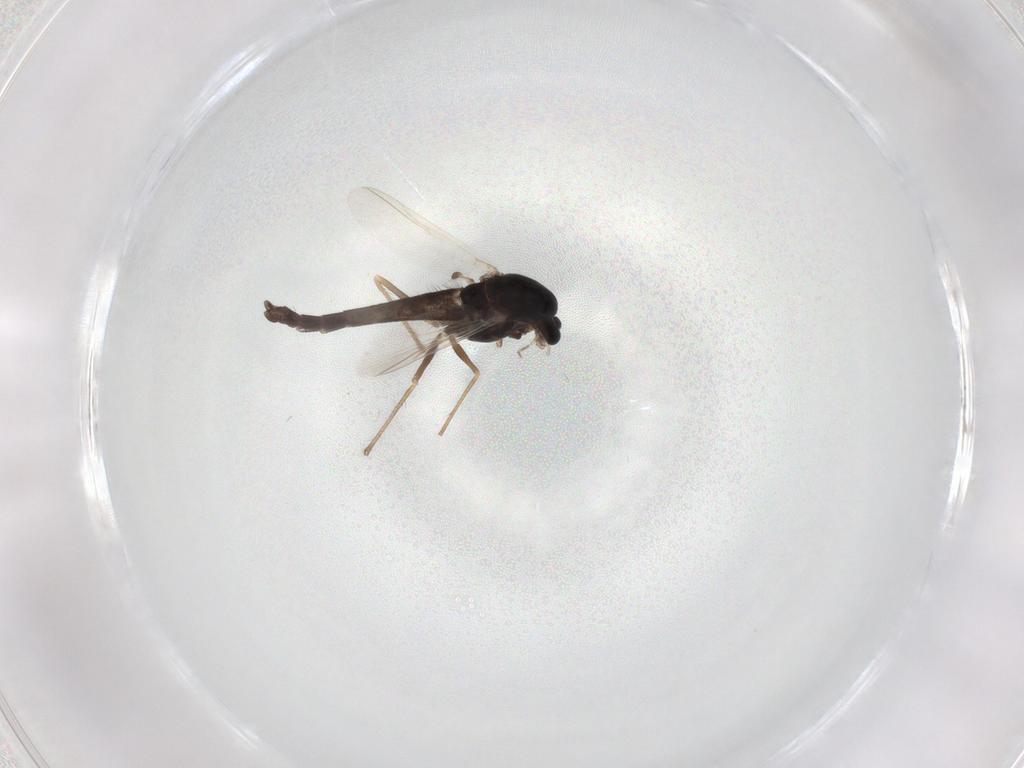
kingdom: Animalia
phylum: Arthropoda
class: Insecta
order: Diptera
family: Chironomidae
